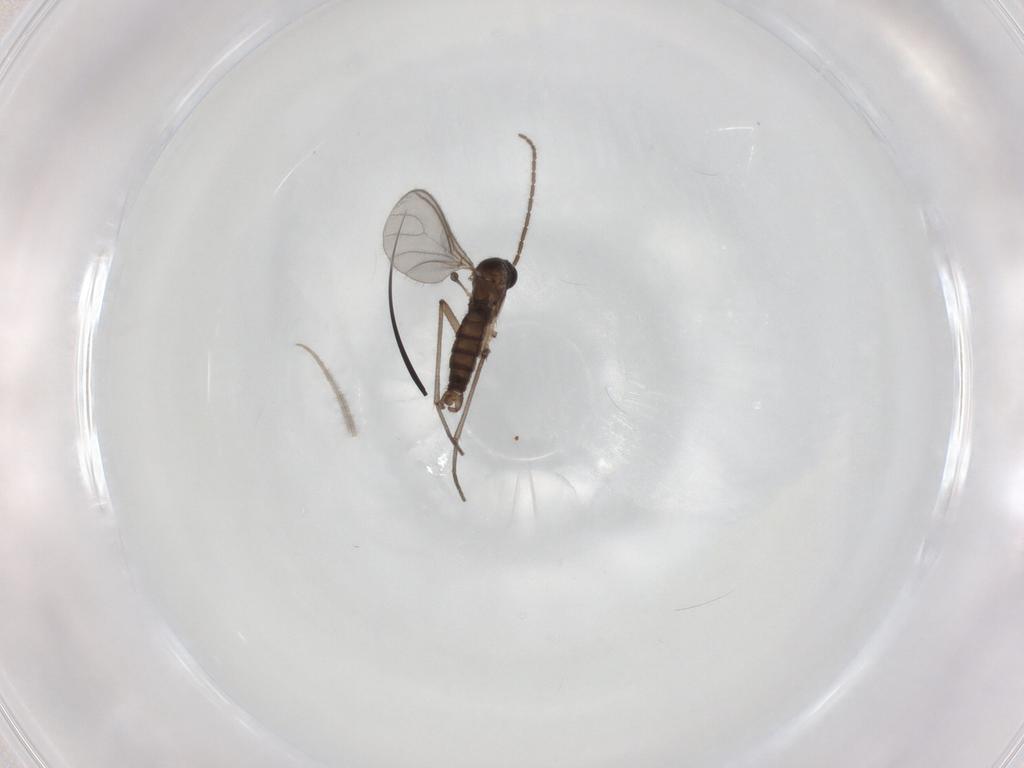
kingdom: Animalia
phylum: Arthropoda
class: Insecta
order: Diptera
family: Sciaridae
